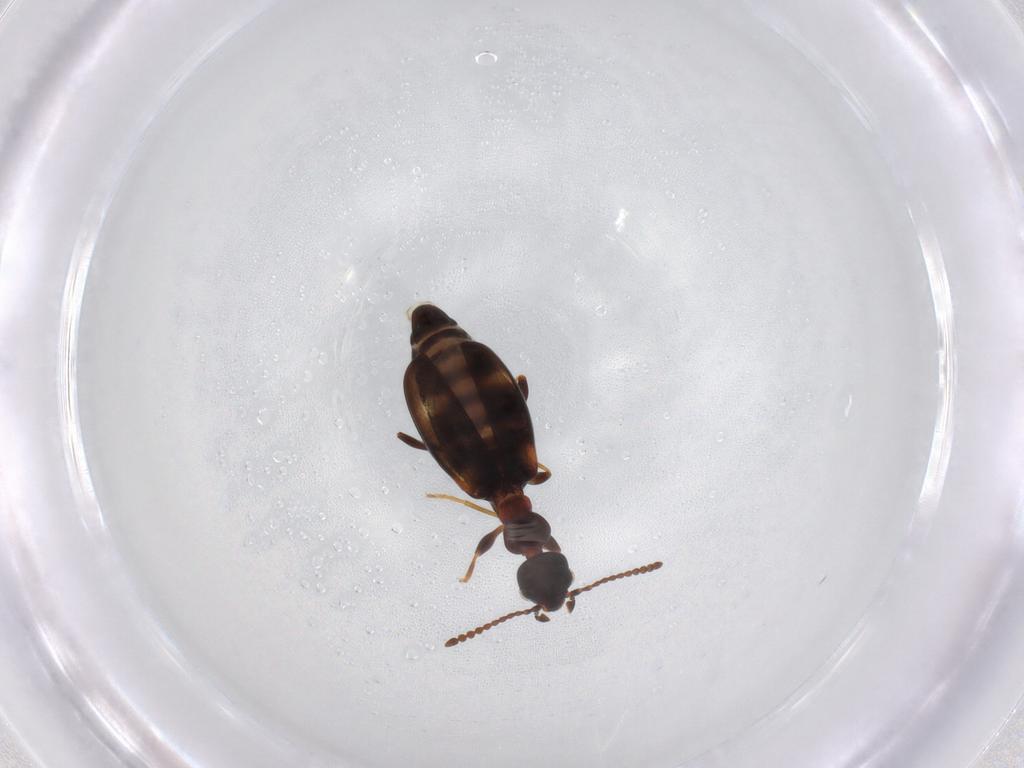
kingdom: Animalia
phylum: Arthropoda
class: Insecta
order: Coleoptera
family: Anthicidae
